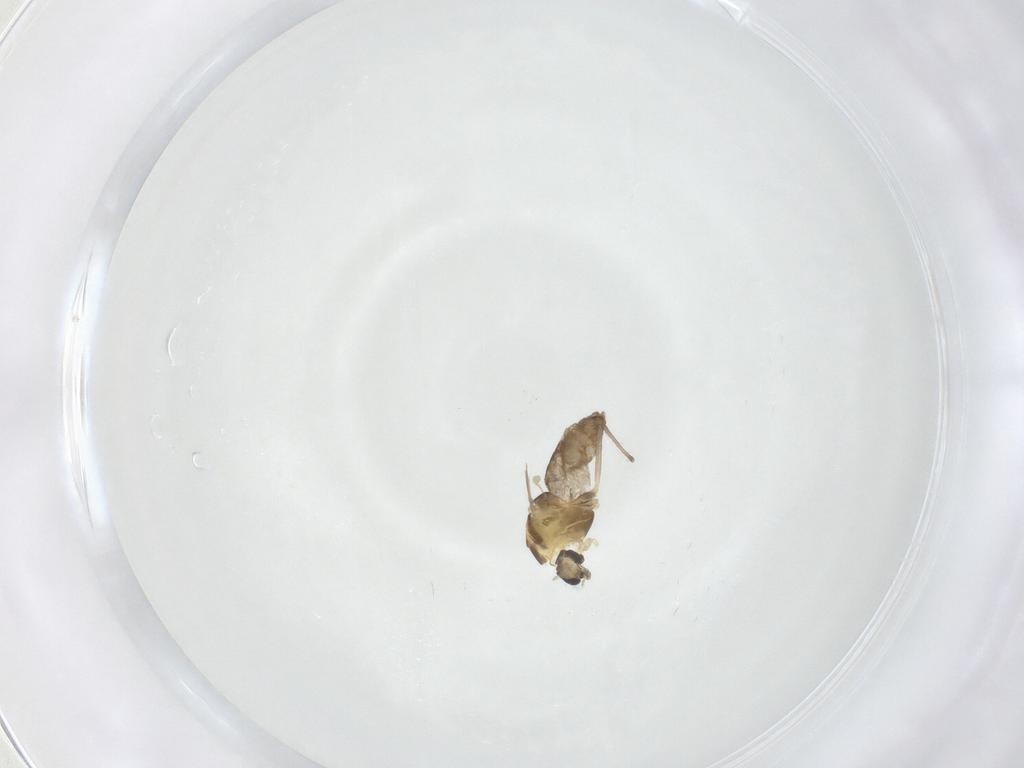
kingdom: Animalia
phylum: Arthropoda
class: Insecta
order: Diptera
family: Chironomidae
